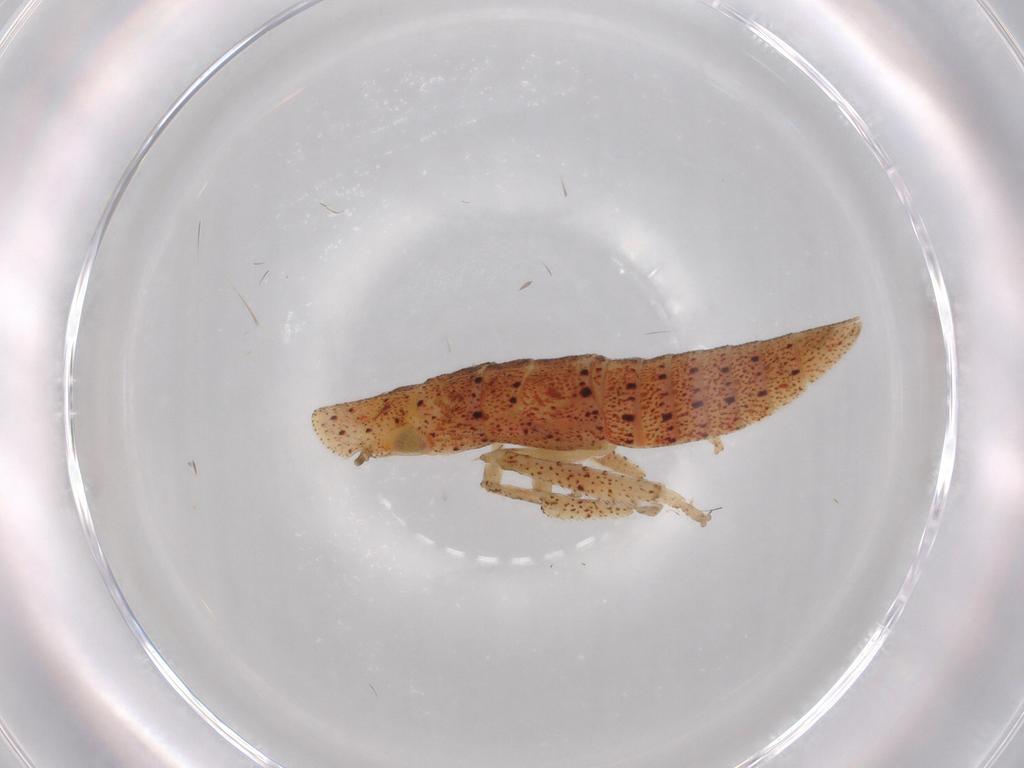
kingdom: Animalia
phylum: Arthropoda
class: Insecta
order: Hemiptera
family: Cicadellidae
